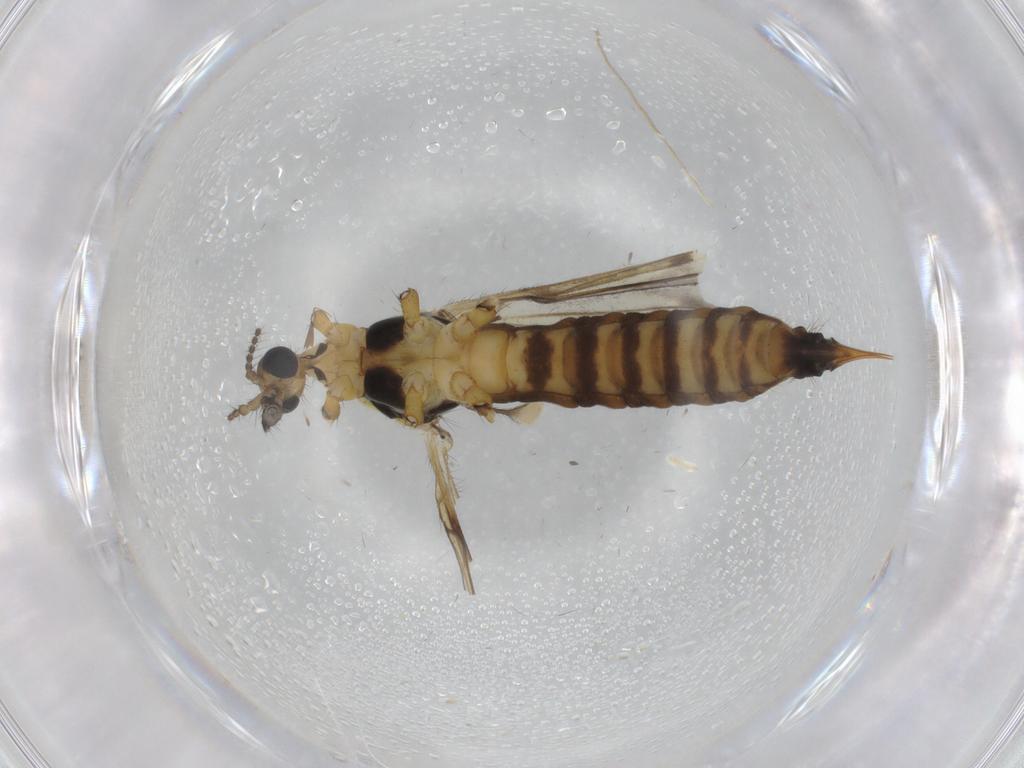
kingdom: Animalia
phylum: Arthropoda
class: Insecta
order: Diptera
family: Limoniidae
